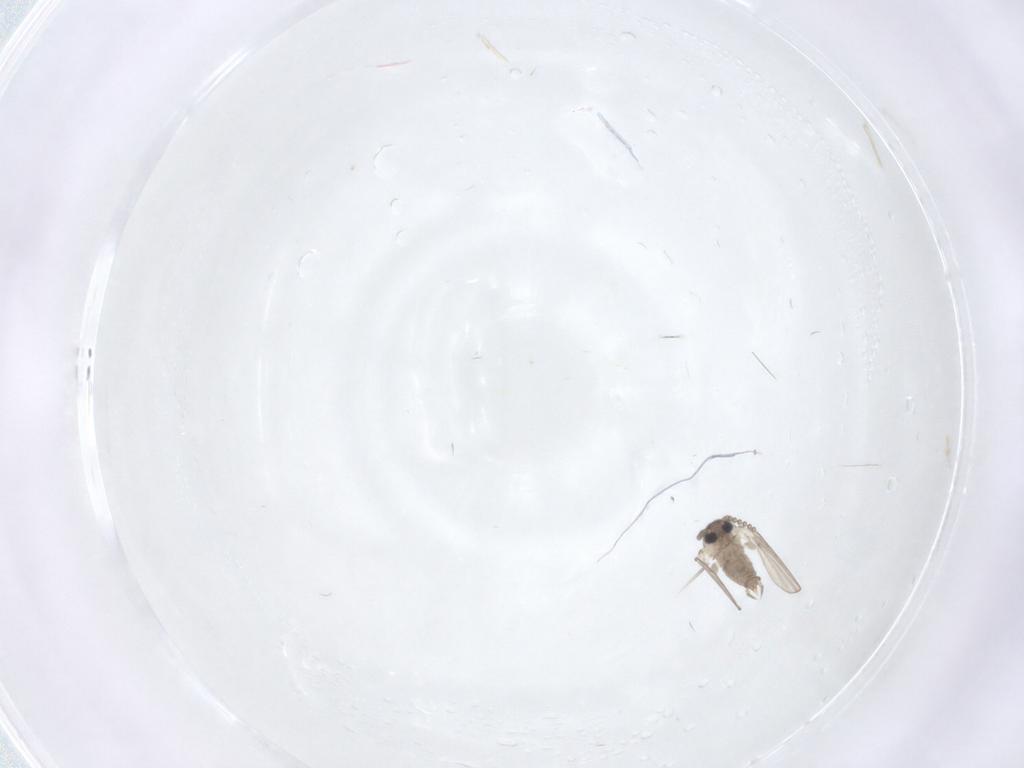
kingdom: Animalia
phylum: Arthropoda
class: Insecta
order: Diptera
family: Psychodidae
